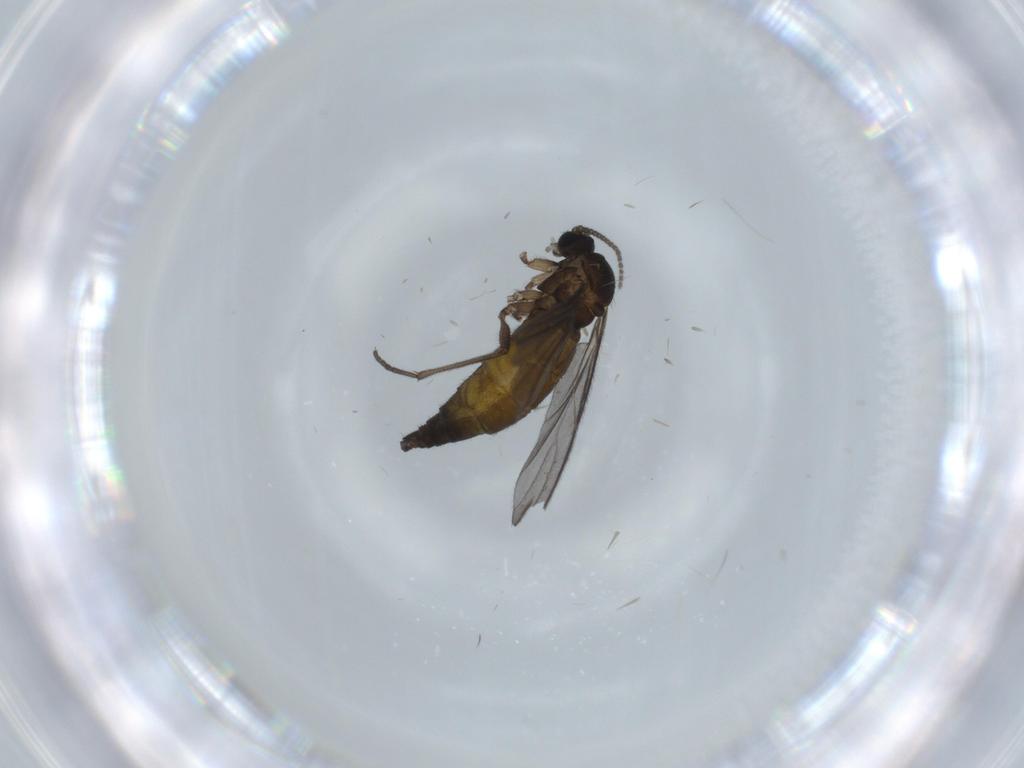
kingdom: Animalia
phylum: Arthropoda
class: Insecta
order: Diptera
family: Sciaridae
